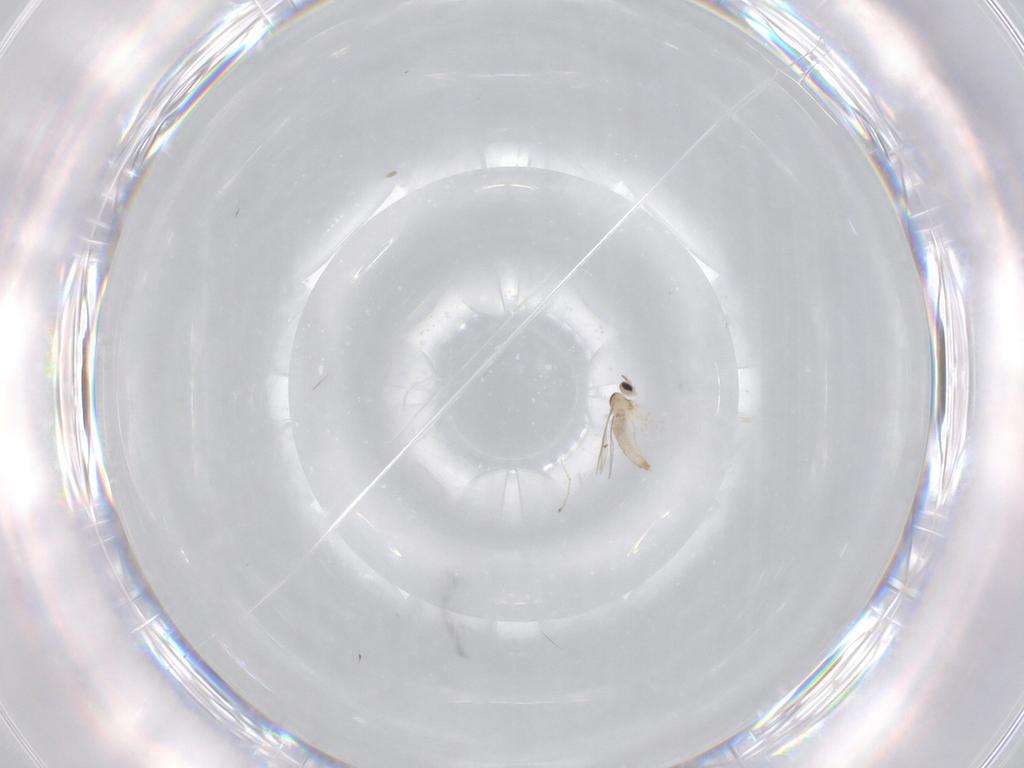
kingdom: Animalia
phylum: Arthropoda
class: Insecta
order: Diptera
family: Cecidomyiidae
